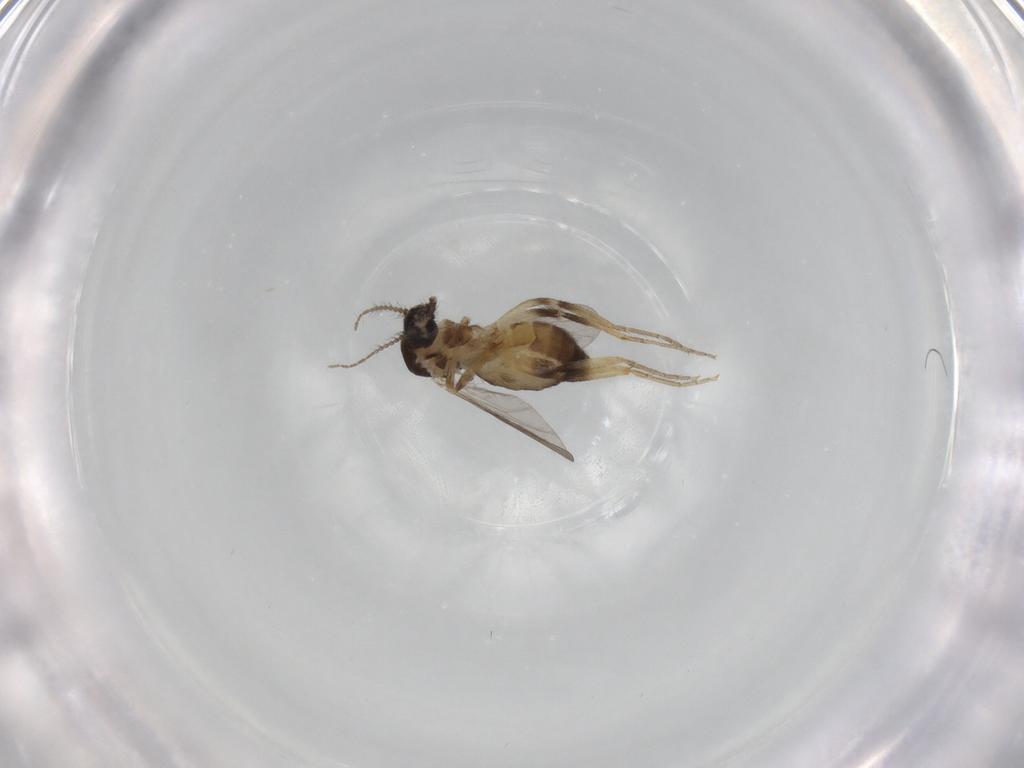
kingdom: Animalia
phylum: Arthropoda
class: Insecta
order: Diptera
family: Ceratopogonidae
